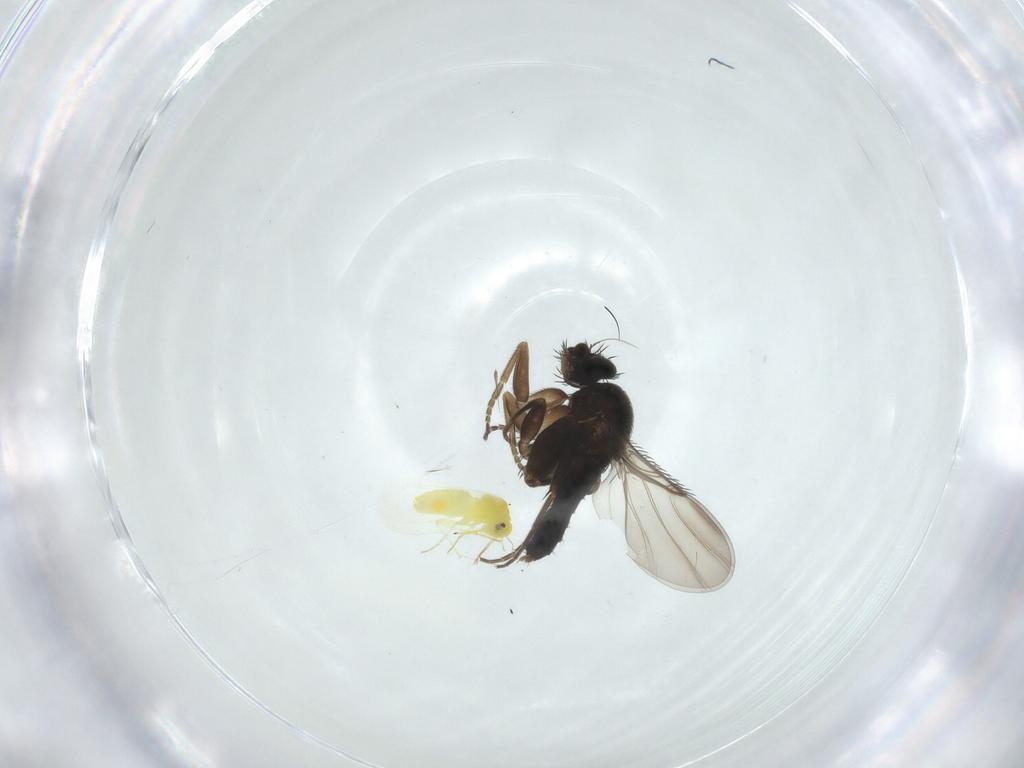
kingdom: Animalia
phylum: Arthropoda
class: Insecta
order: Diptera
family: Phoridae
